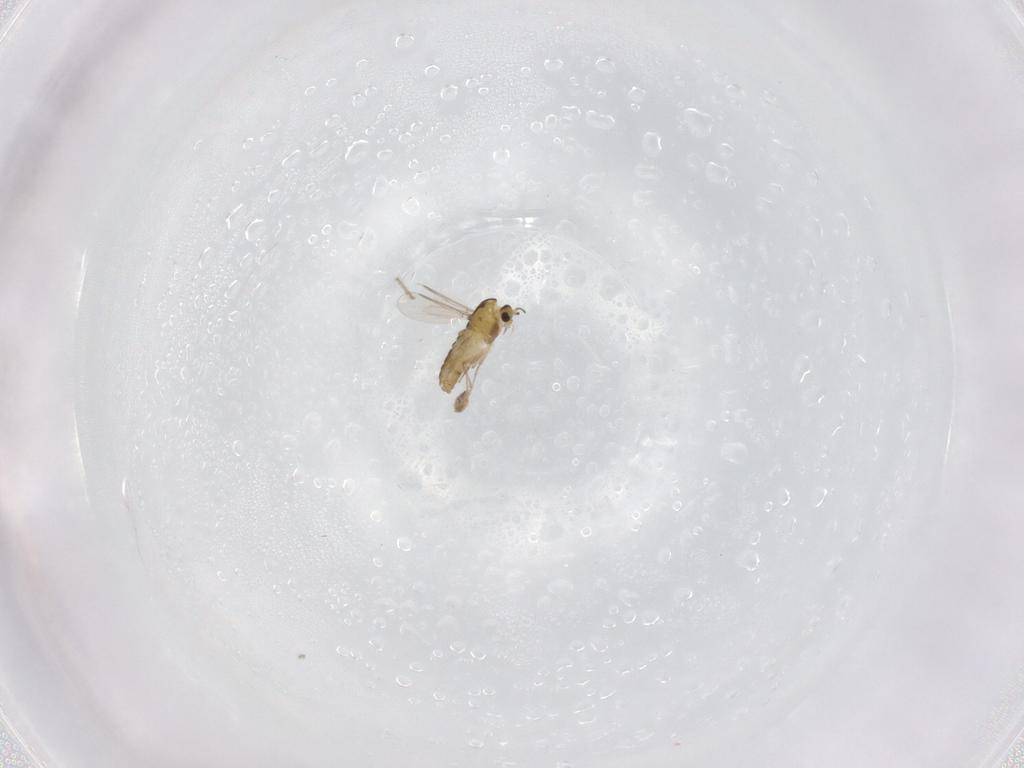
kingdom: Animalia
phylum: Arthropoda
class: Insecta
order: Diptera
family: Chironomidae
